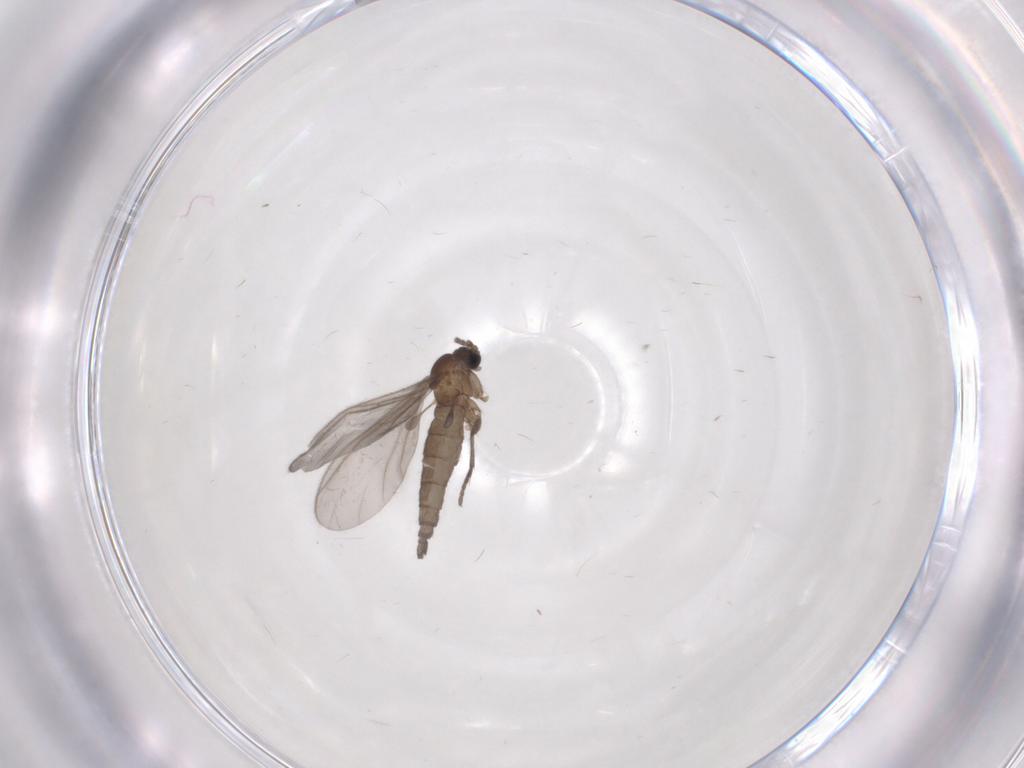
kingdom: Animalia
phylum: Arthropoda
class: Insecta
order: Diptera
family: Sciaridae
